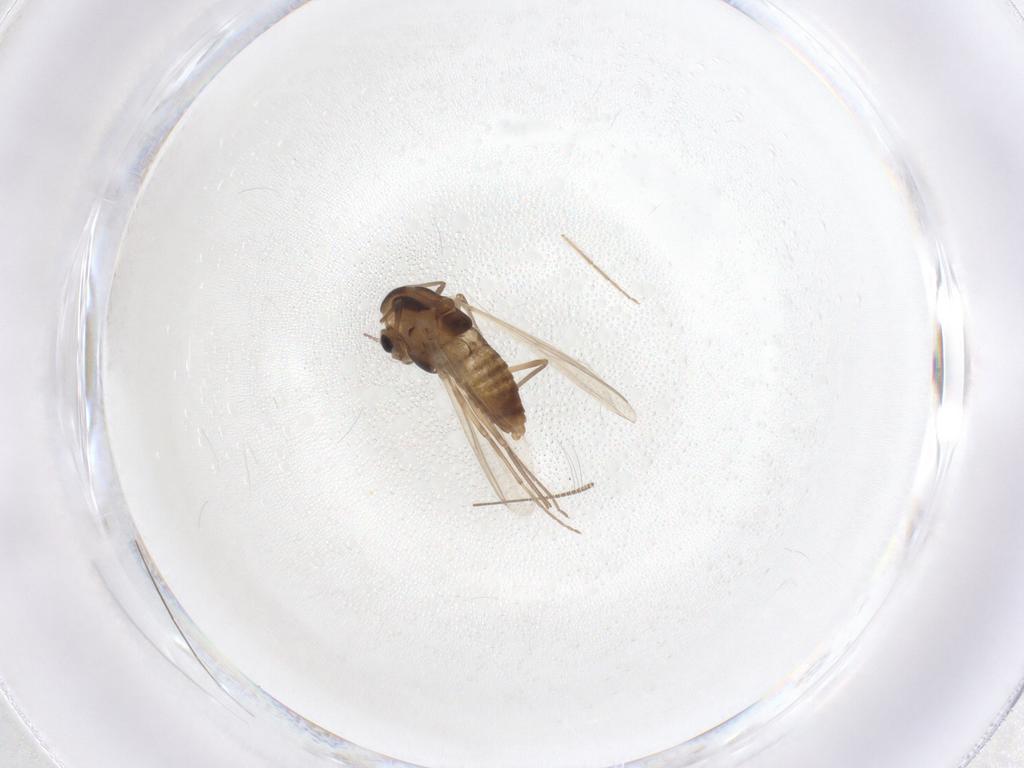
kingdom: Animalia
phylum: Arthropoda
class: Insecta
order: Diptera
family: Chironomidae
